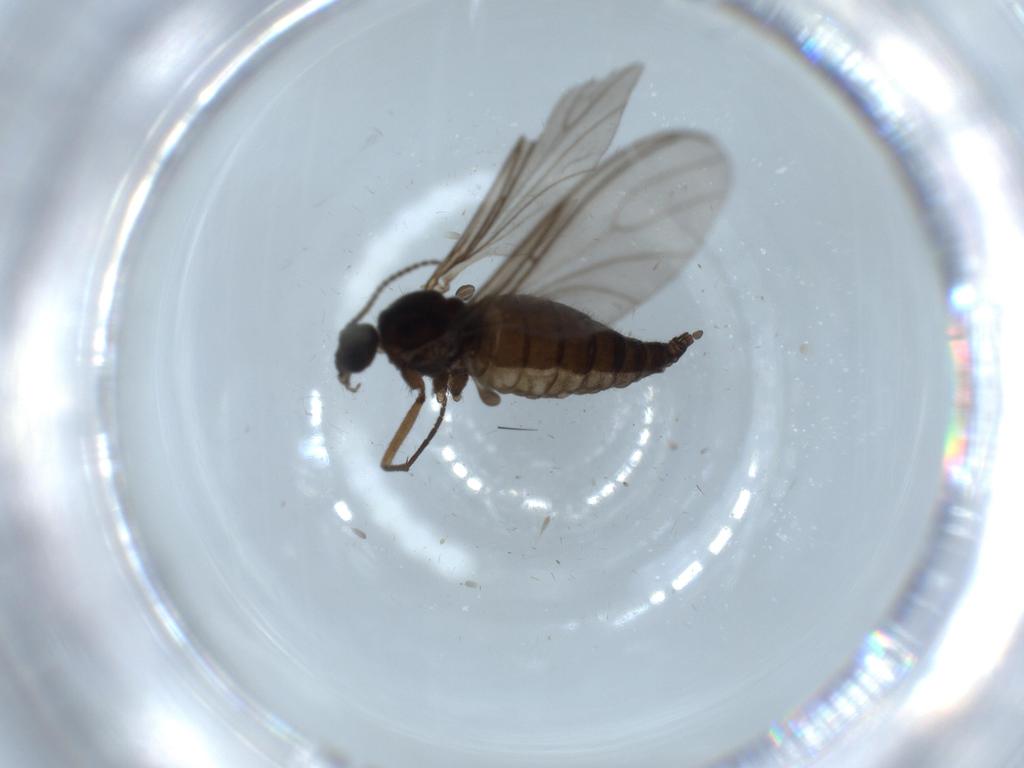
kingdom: Animalia
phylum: Arthropoda
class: Insecta
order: Diptera
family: Sciaridae
